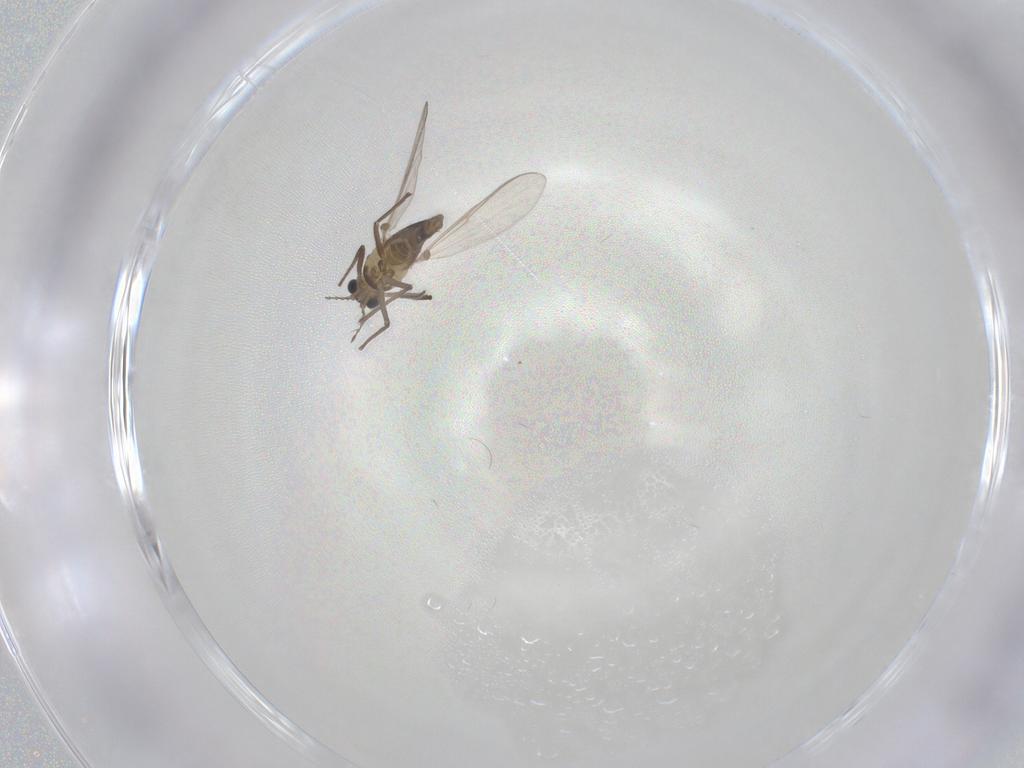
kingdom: Animalia
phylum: Arthropoda
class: Insecta
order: Diptera
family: Hybotidae
